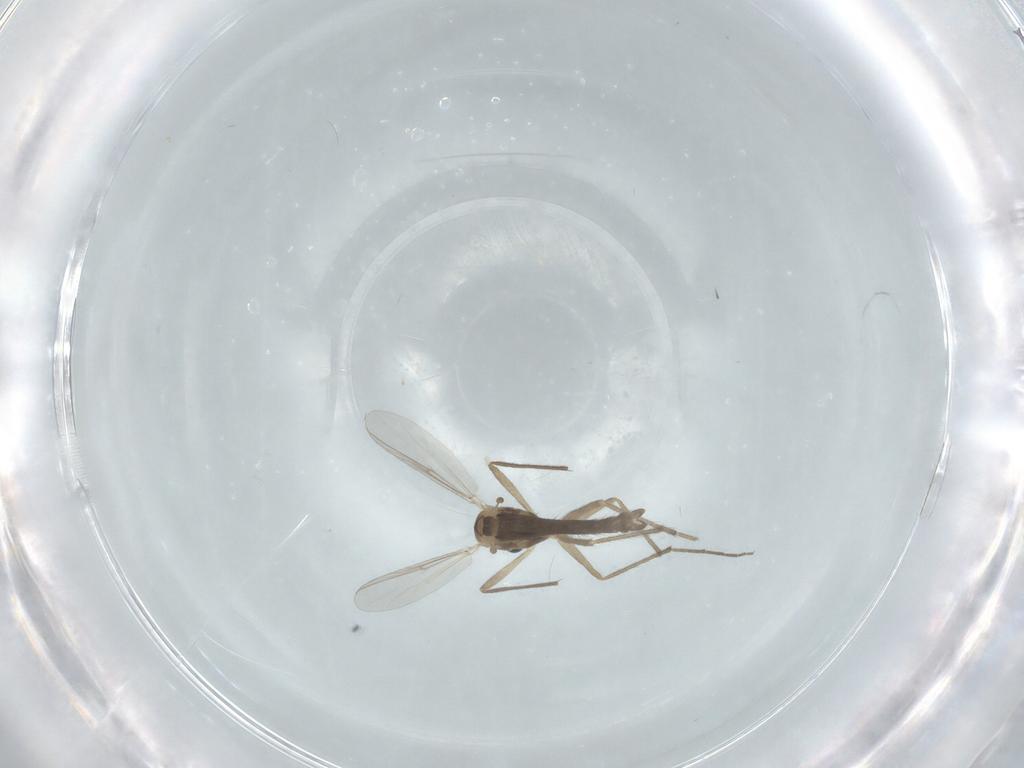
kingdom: Animalia
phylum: Arthropoda
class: Insecta
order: Diptera
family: Chironomidae
